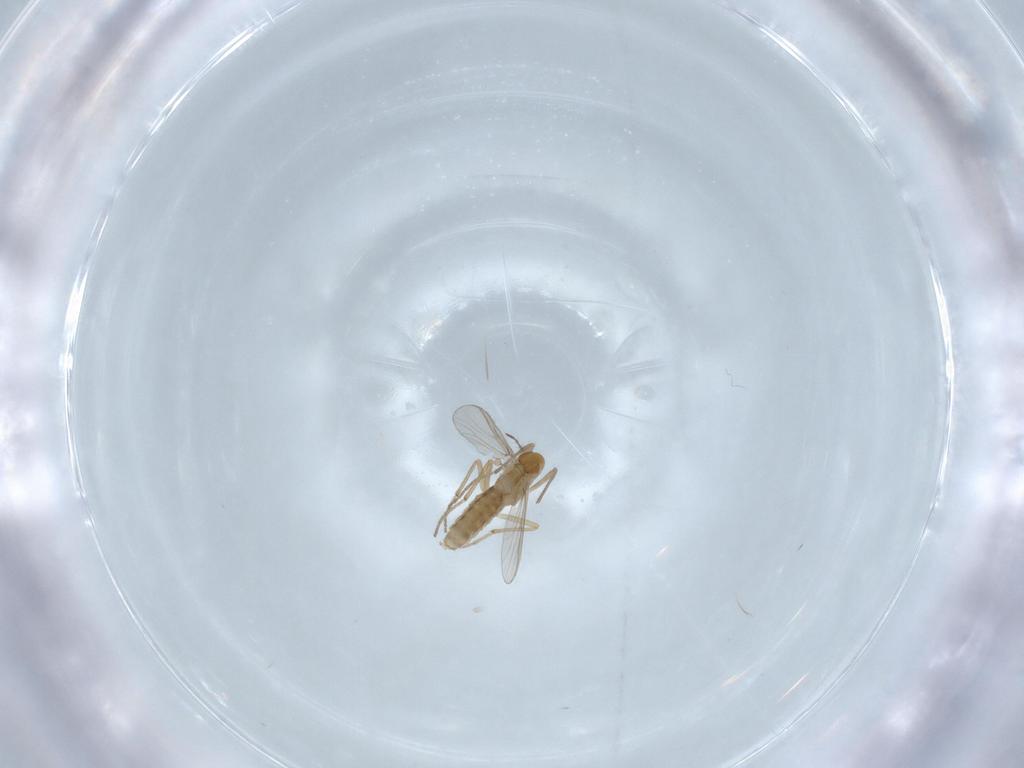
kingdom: Animalia
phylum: Arthropoda
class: Insecta
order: Diptera
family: Chironomidae
